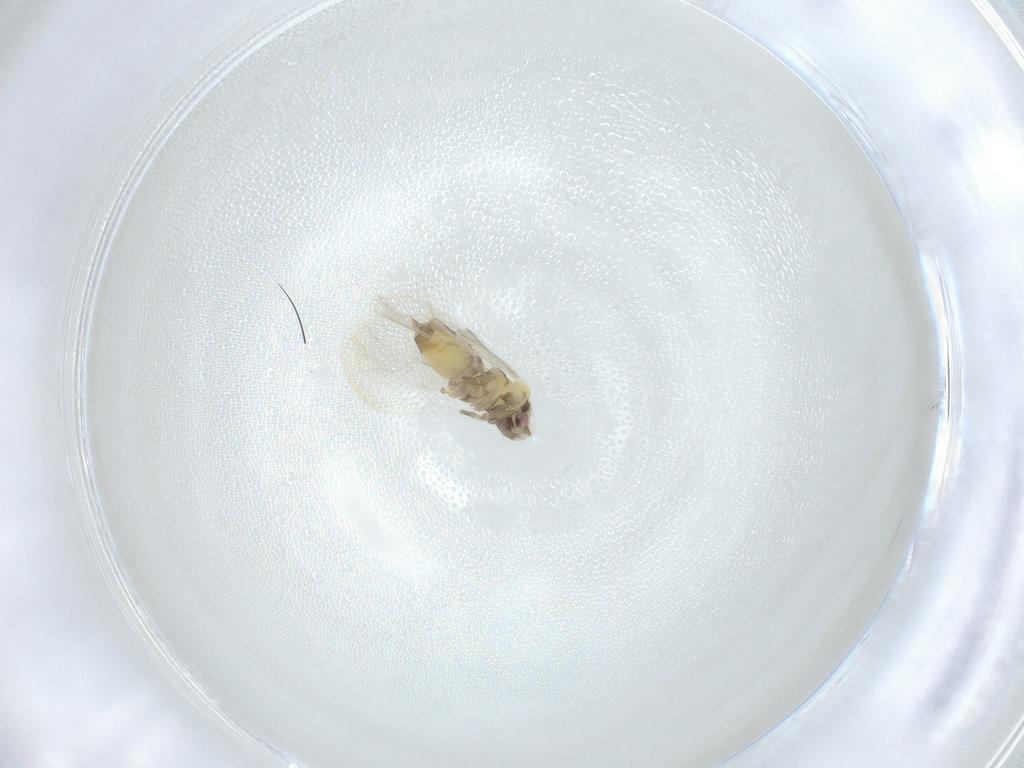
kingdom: Animalia
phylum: Arthropoda
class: Insecta
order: Hemiptera
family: Aleyrodidae
